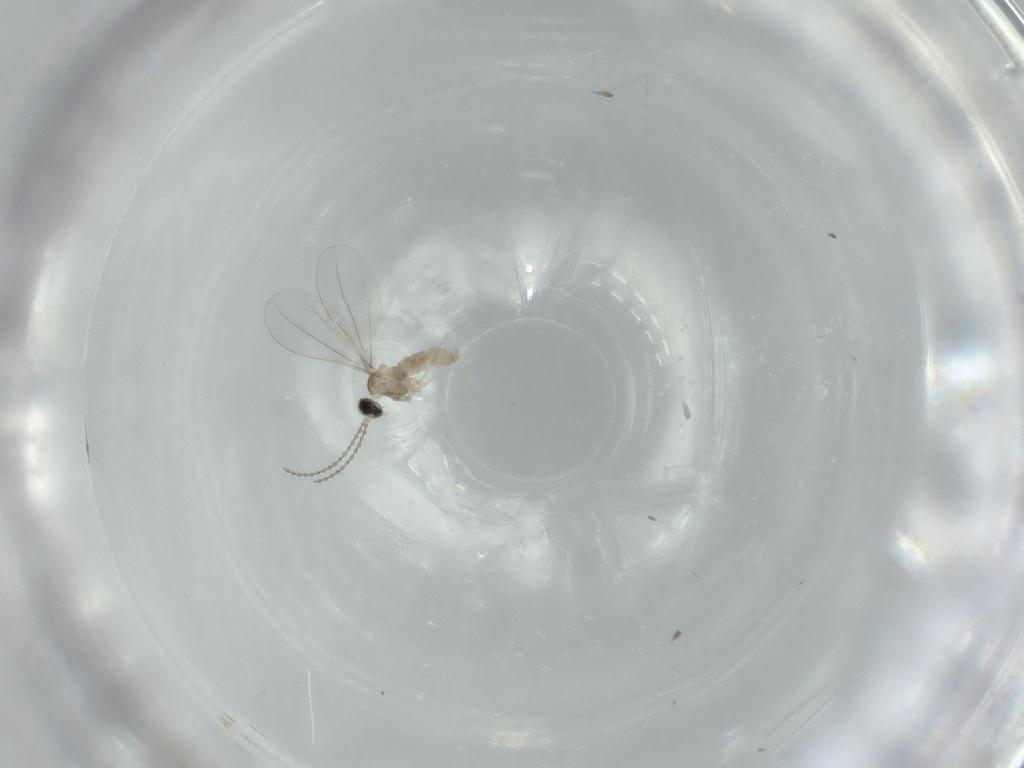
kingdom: Animalia
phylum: Arthropoda
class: Insecta
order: Diptera
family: Cecidomyiidae
